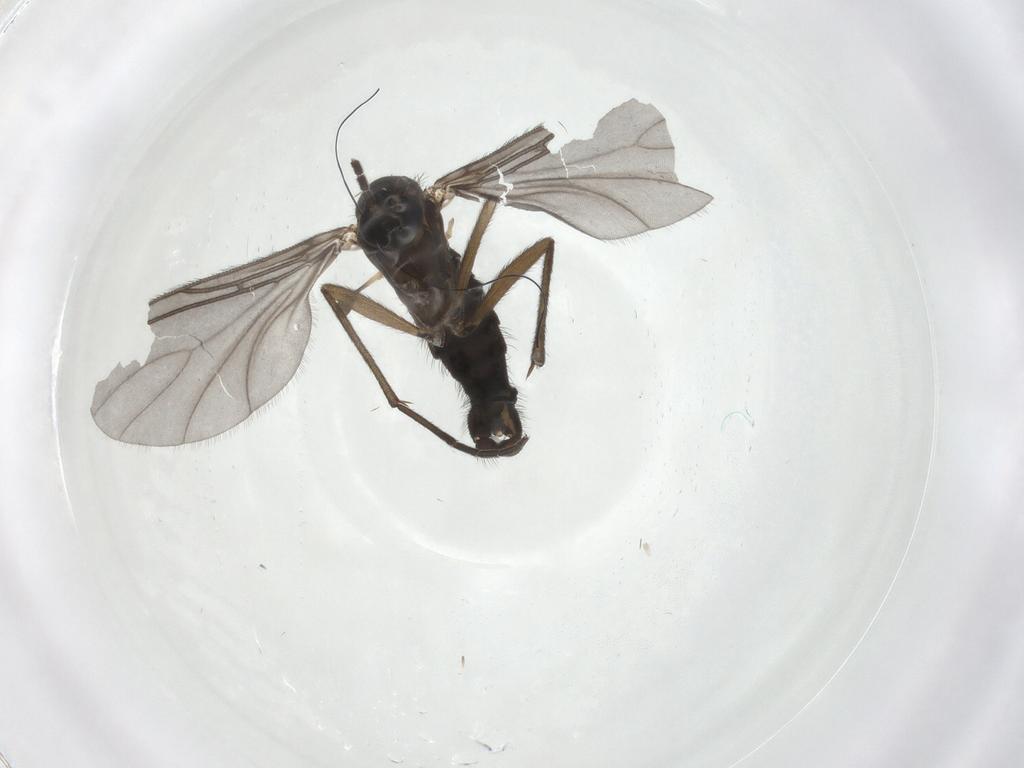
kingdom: Animalia
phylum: Arthropoda
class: Insecta
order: Diptera
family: Sciaridae
